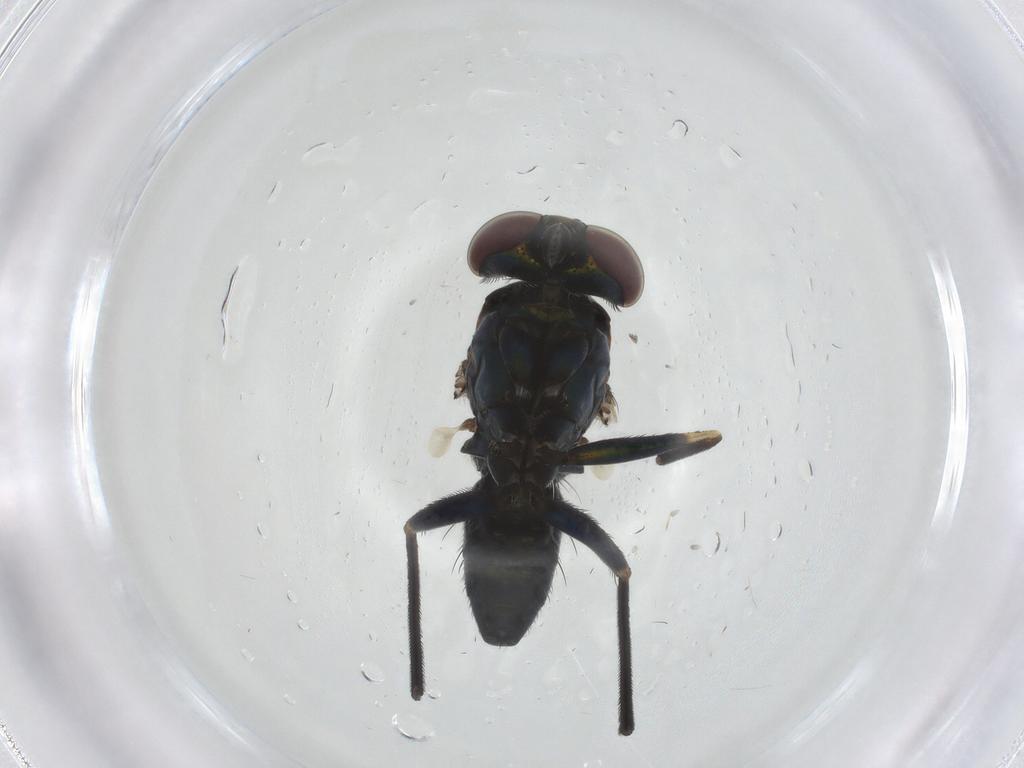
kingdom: Animalia
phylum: Arthropoda
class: Insecta
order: Diptera
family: Dolichopodidae
